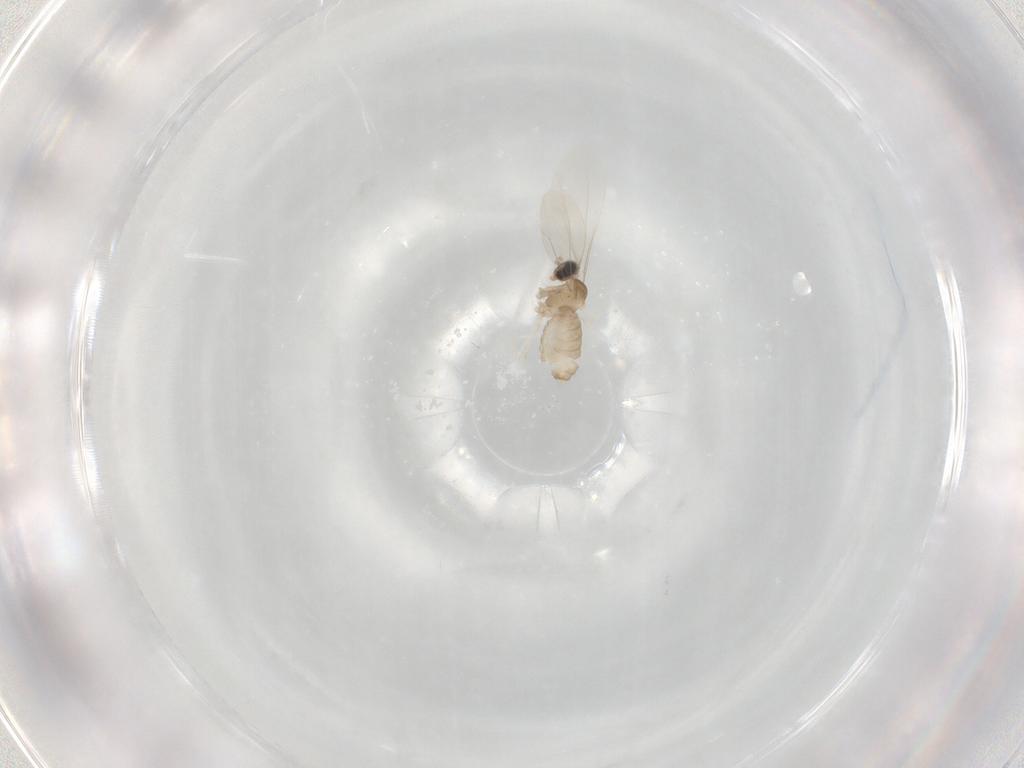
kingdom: Animalia
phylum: Arthropoda
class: Insecta
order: Diptera
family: Cecidomyiidae
